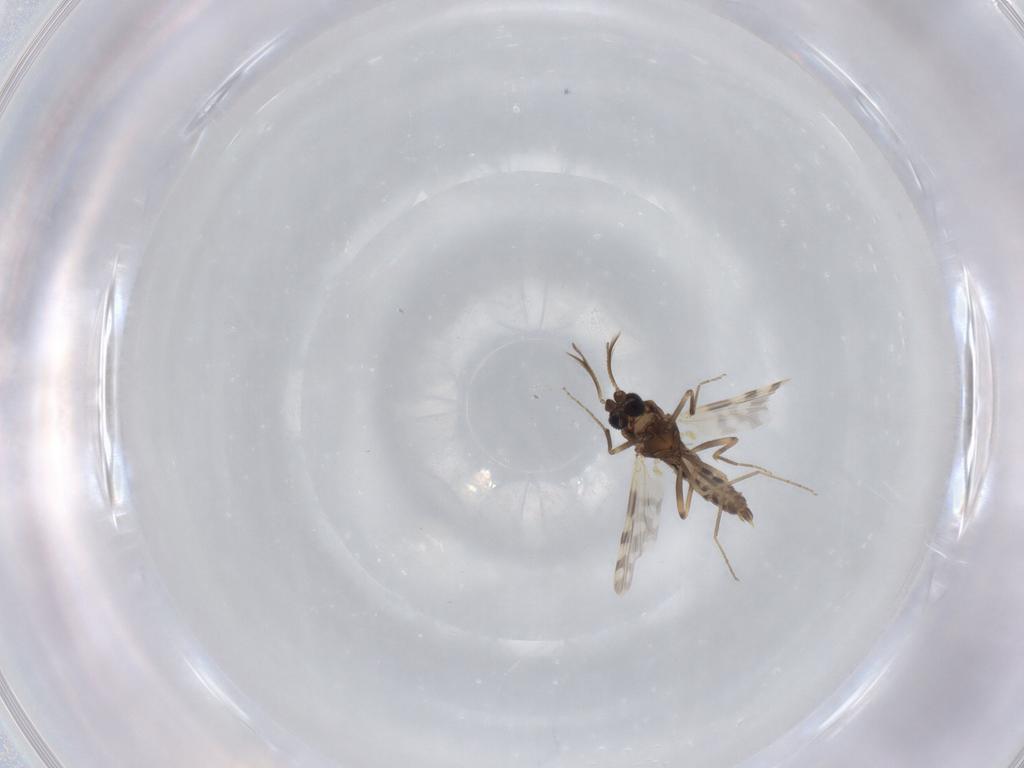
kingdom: Animalia
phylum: Arthropoda
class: Insecta
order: Diptera
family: Ceratopogonidae
